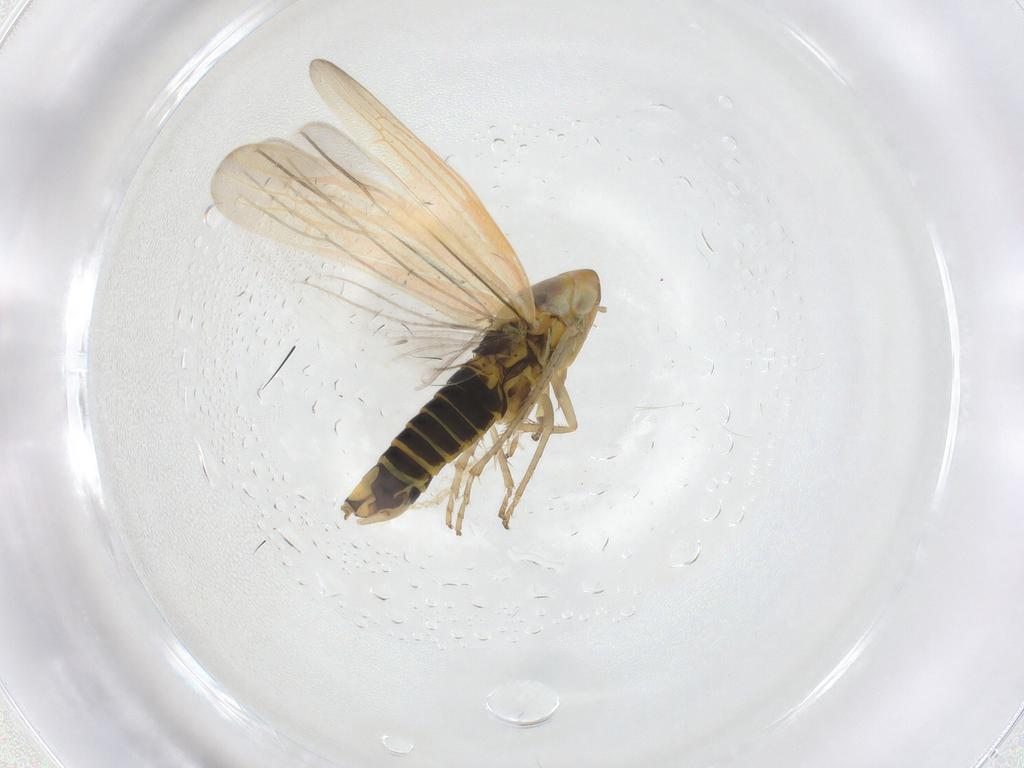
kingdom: Animalia
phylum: Arthropoda
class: Insecta
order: Hemiptera
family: Cicadellidae
